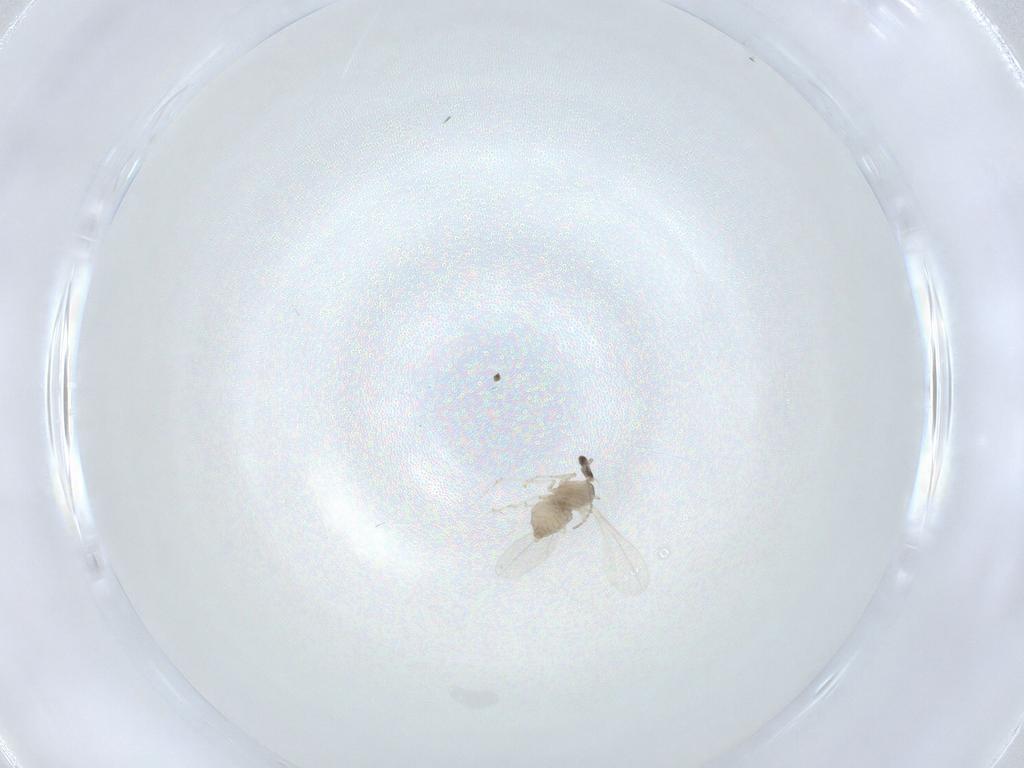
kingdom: Animalia
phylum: Arthropoda
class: Insecta
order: Diptera
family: Cecidomyiidae
